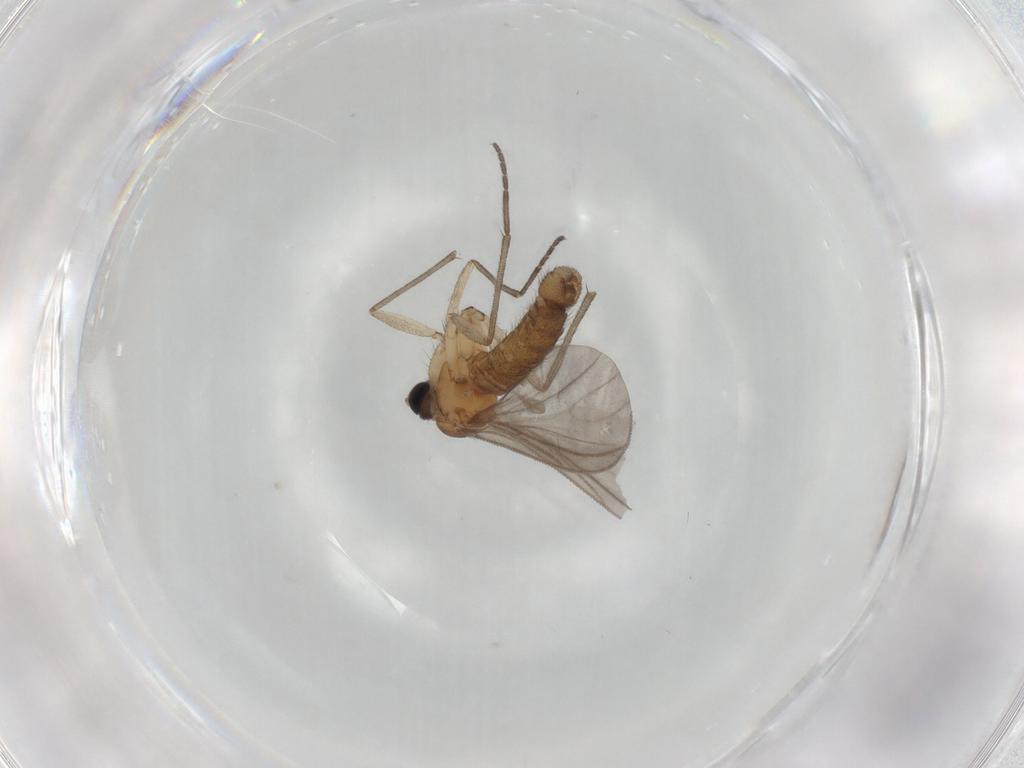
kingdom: Animalia
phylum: Arthropoda
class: Insecta
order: Diptera
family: Sciaridae
